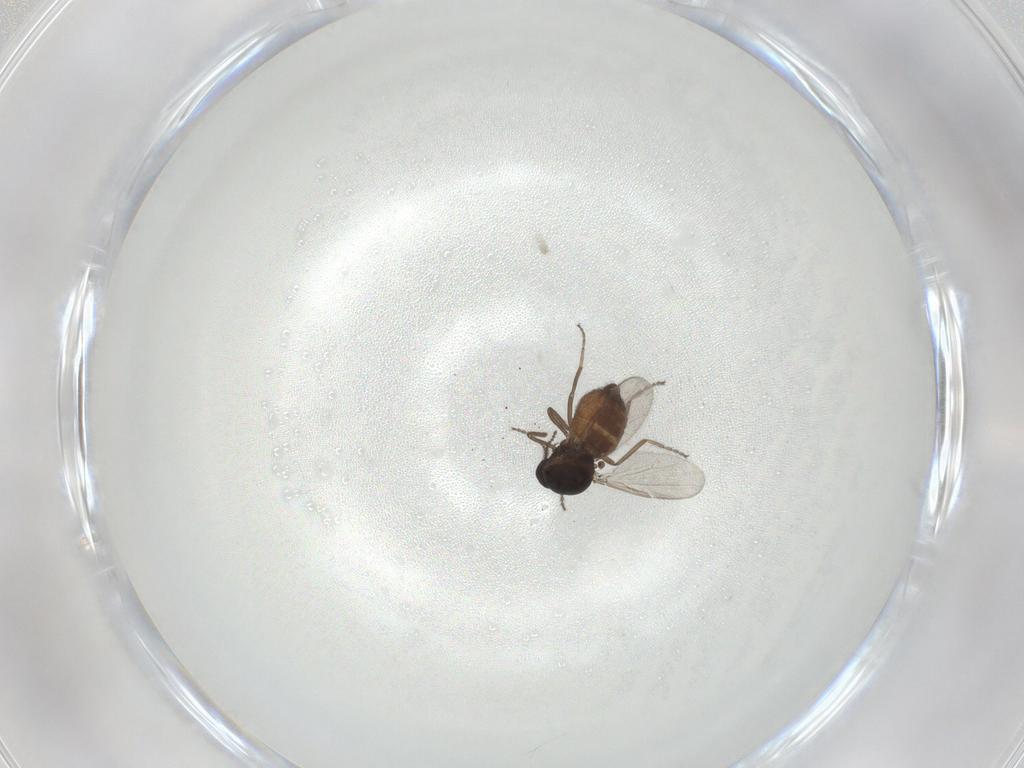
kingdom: Animalia
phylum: Arthropoda
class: Insecta
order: Diptera
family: Ceratopogonidae
